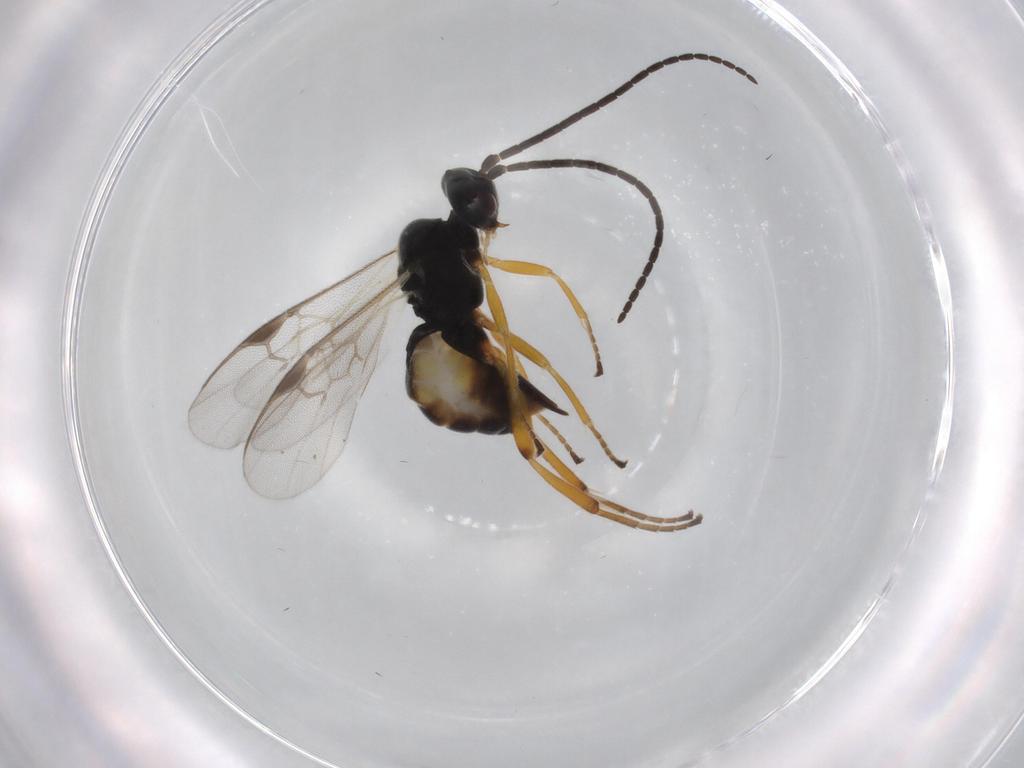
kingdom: Animalia
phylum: Arthropoda
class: Insecta
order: Hymenoptera
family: Braconidae
